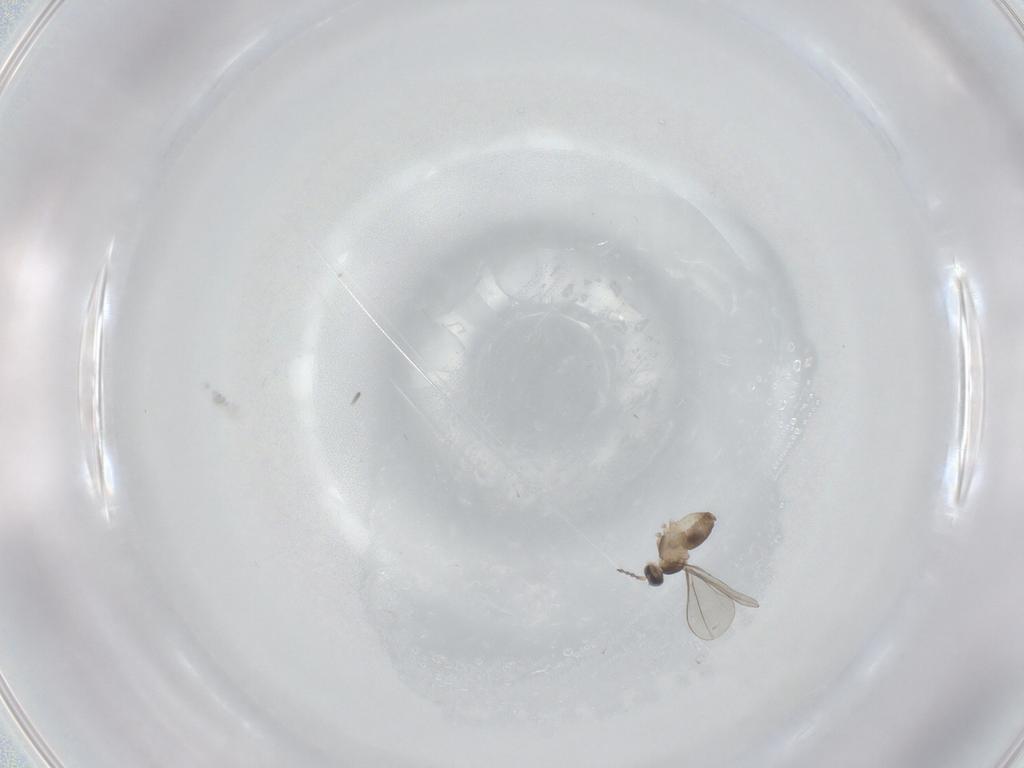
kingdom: Animalia
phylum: Arthropoda
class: Insecta
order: Diptera
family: Cecidomyiidae
